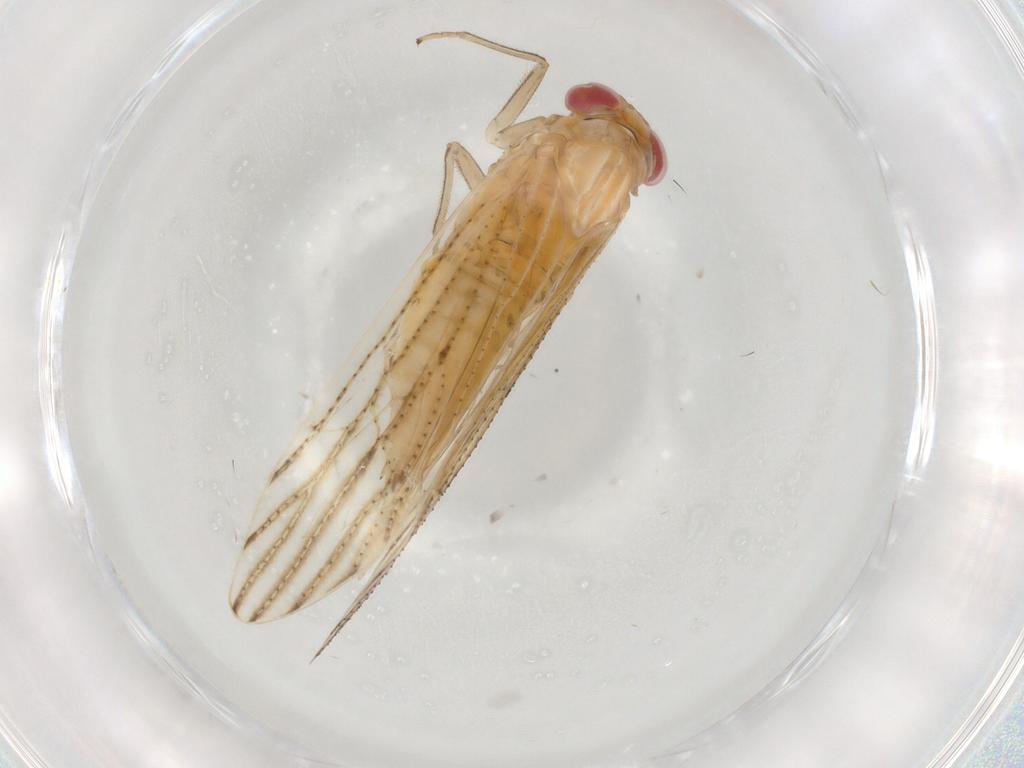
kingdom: Animalia
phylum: Arthropoda
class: Insecta
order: Hemiptera
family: Delphacidae
